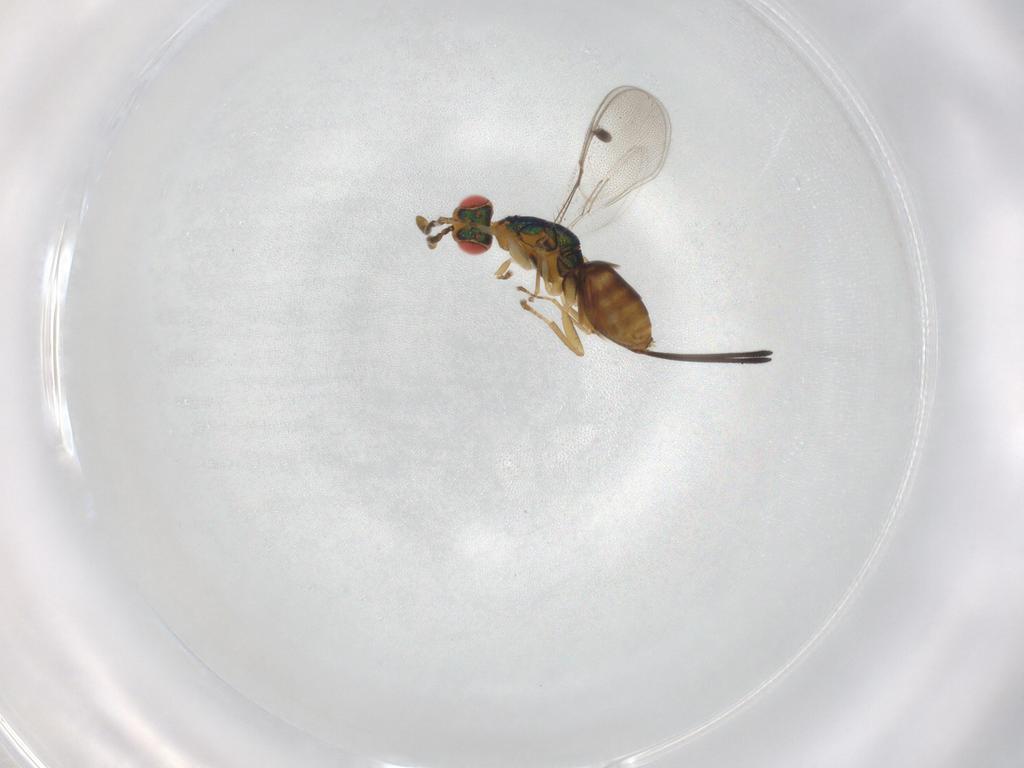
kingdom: Animalia
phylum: Arthropoda
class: Insecta
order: Hymenoptera
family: Megastigmidae
